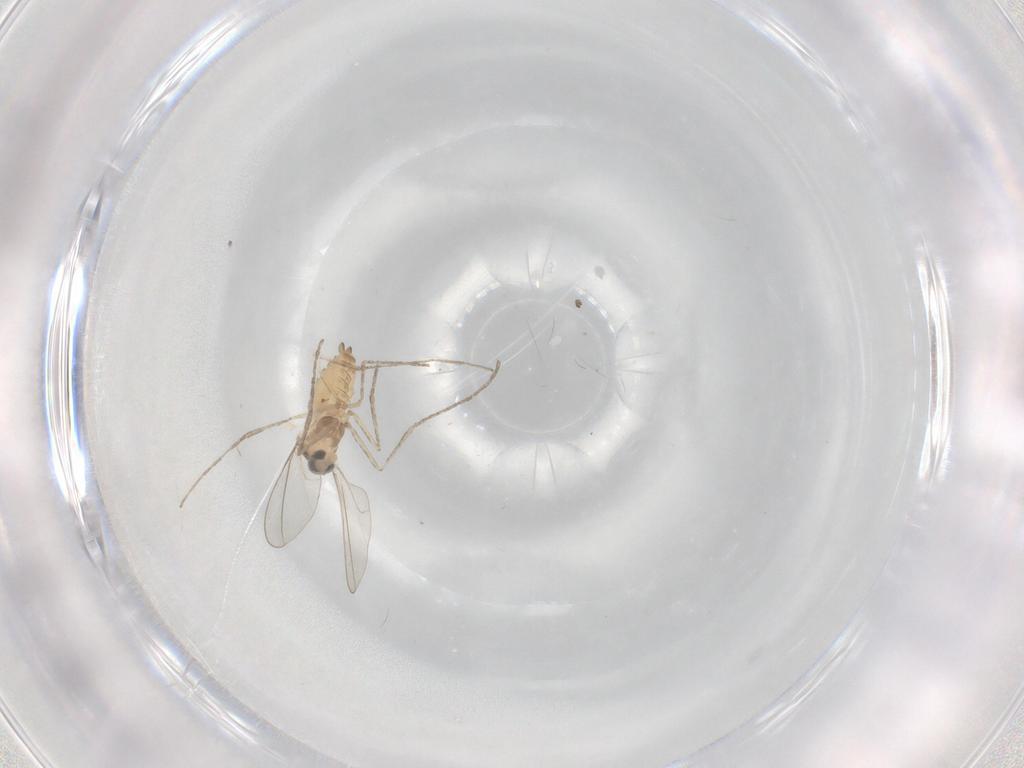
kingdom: Animalia
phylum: Arthropoda
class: Insecta
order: Diptera
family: Cecidomyiidae
